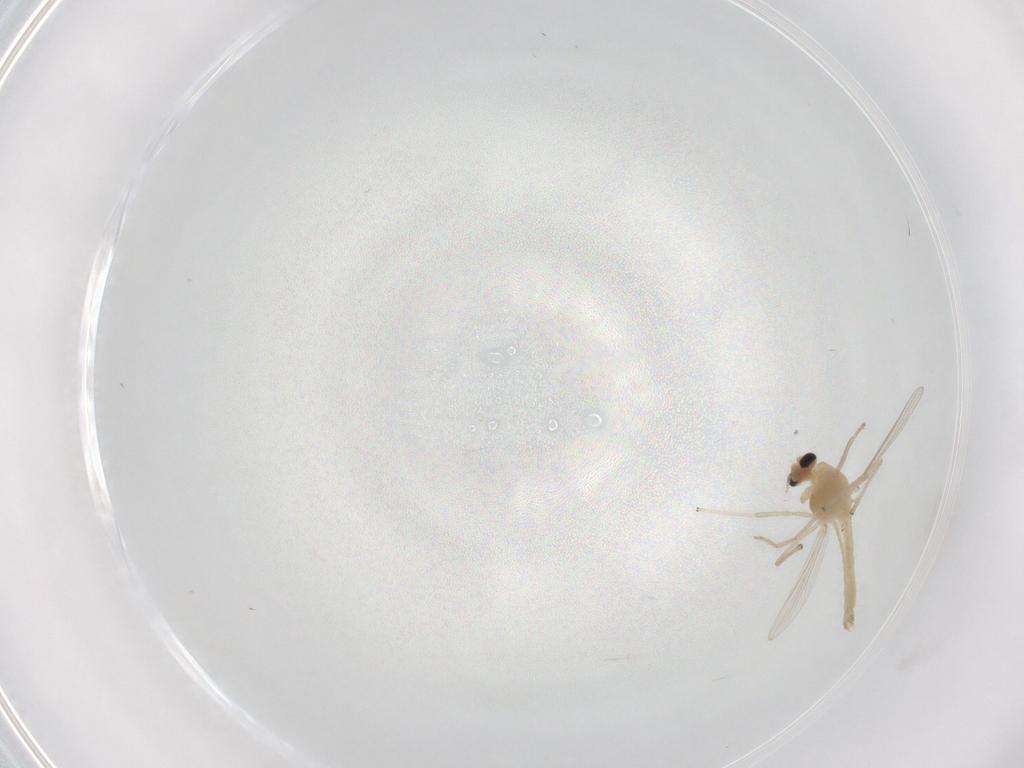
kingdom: Animalia
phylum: Arthropoda
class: Insecta
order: Diptera
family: Chironomidae
